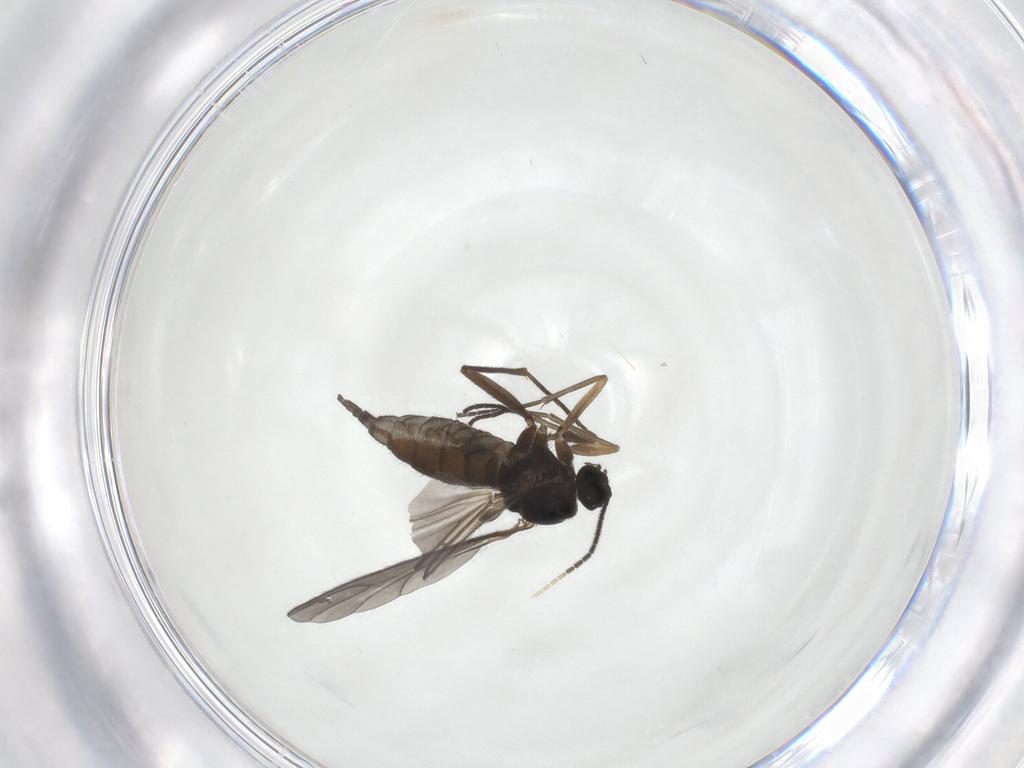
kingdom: Animalia
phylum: Arthropoda
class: Insecta
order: Diptera
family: Sciaridae
